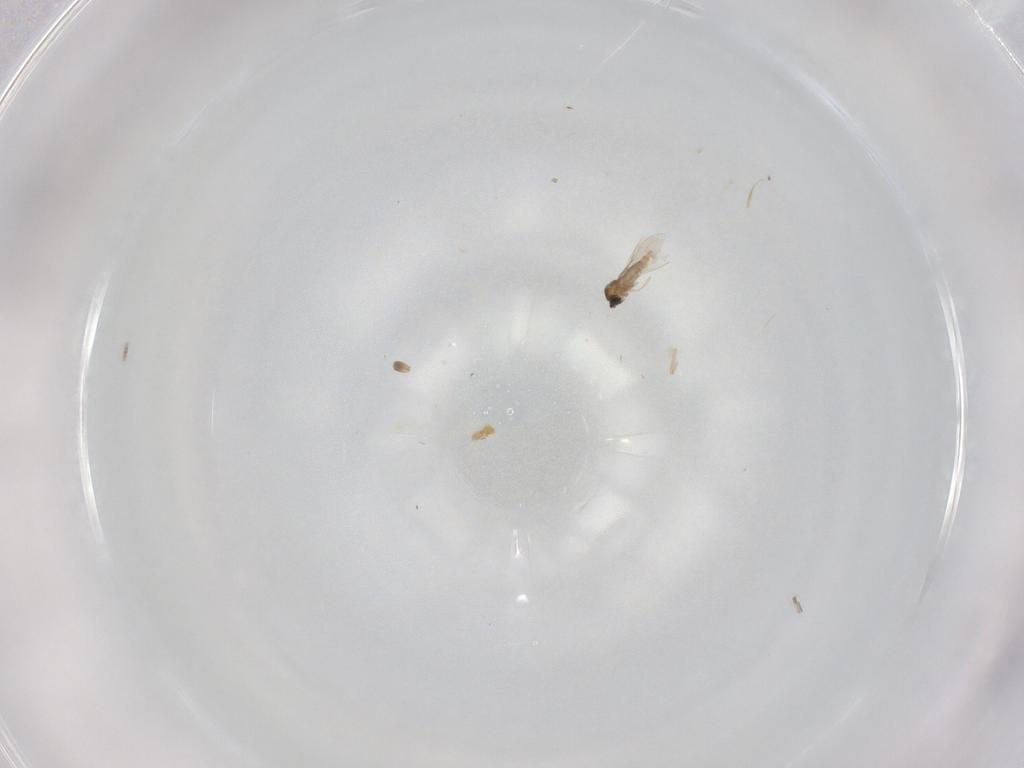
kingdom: Animalia
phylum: Arthropoda
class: Insecta
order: Diptera
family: Cecidomyiidae
